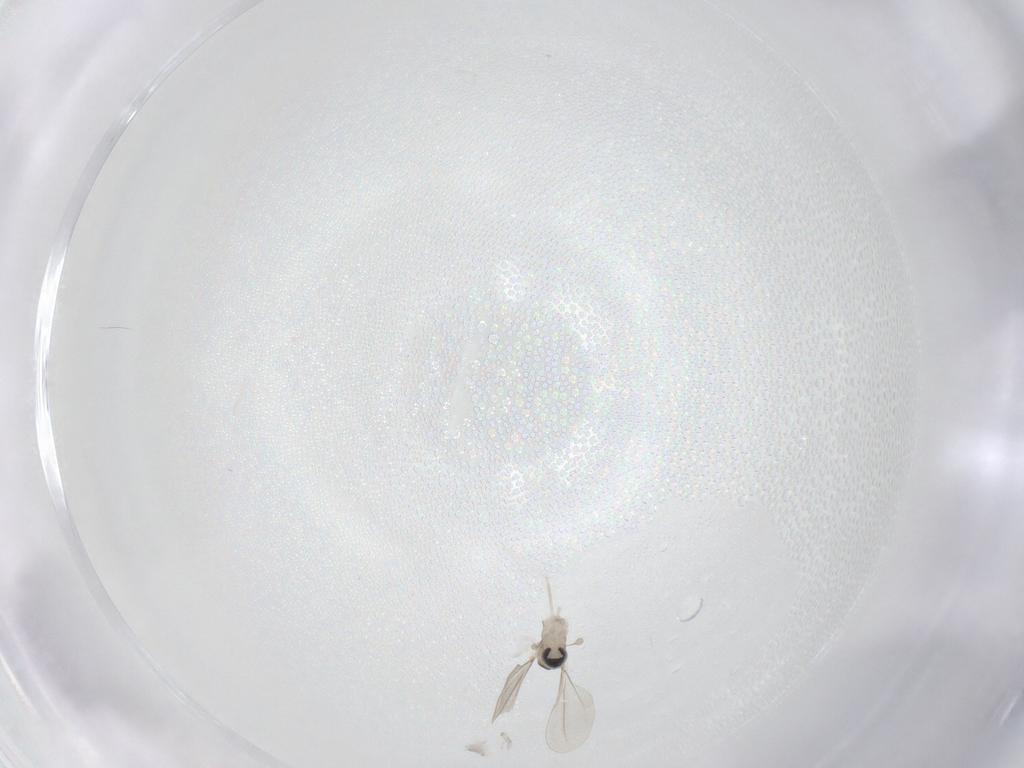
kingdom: Animalia
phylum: Arthropoda
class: Insecta
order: Diptera
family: Cecidomyiidae
